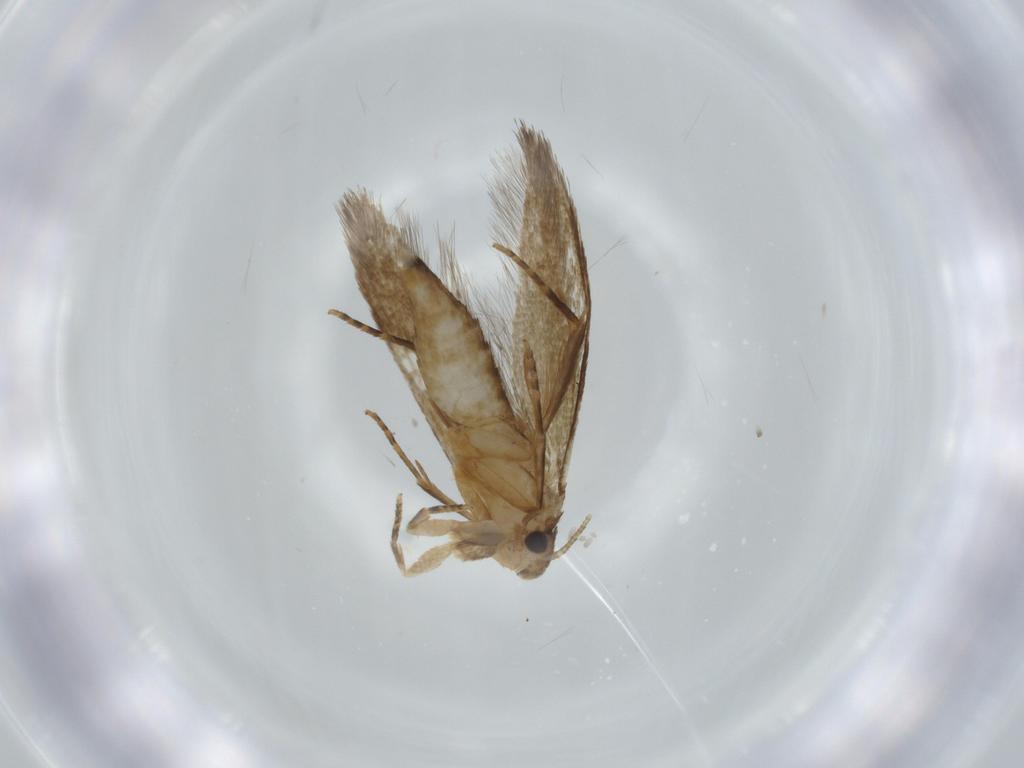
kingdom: Animalia
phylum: Arthropoda
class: Insecta
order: Lepidoptera
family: Tineidae
